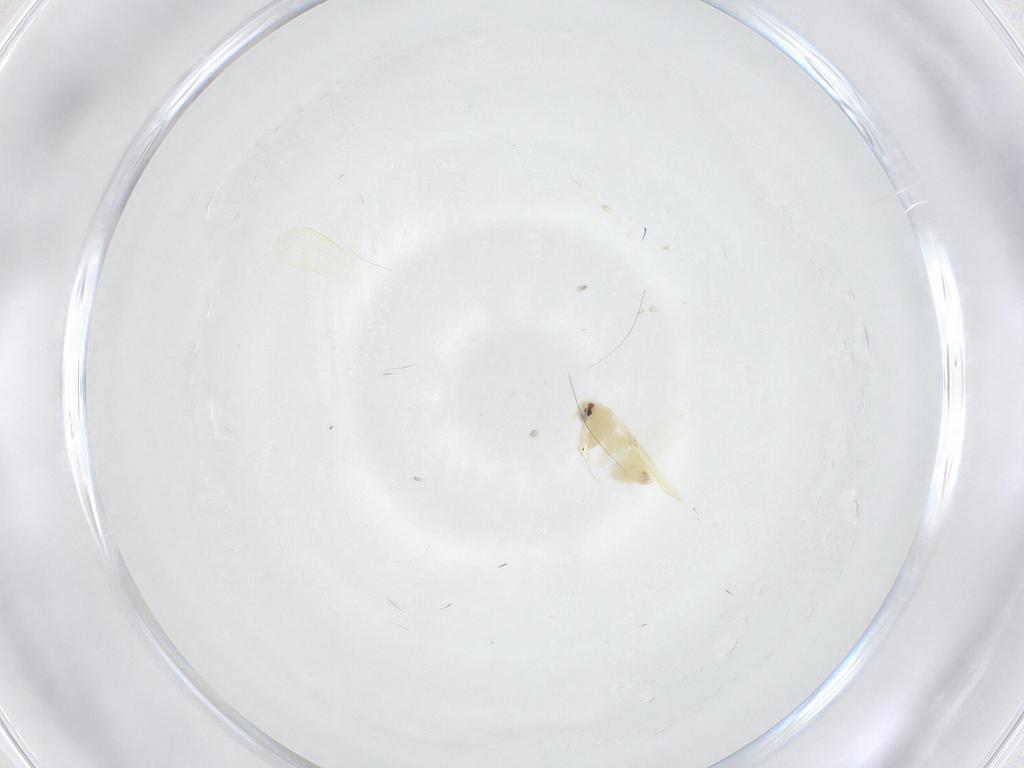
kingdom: Animalia
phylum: Arthropoda
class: Insecta
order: Hemiptera
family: Aleyrodidae
